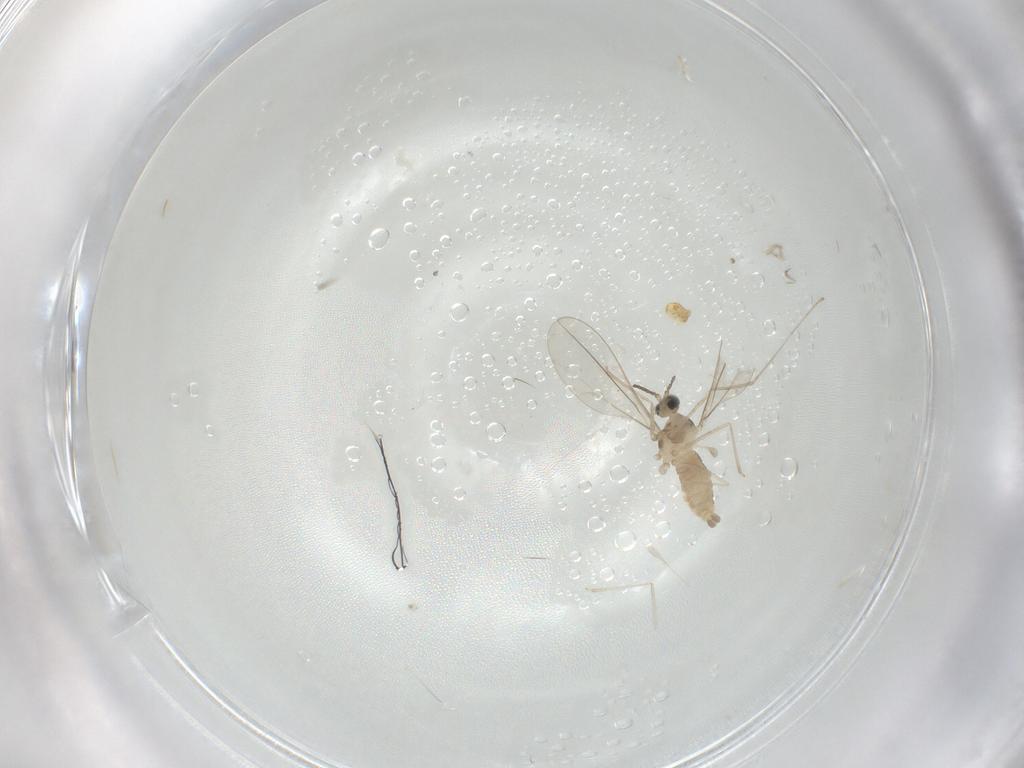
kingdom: Animalia
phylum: Arthropoda
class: Insecta
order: Diptera
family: Cecidomyiidae
